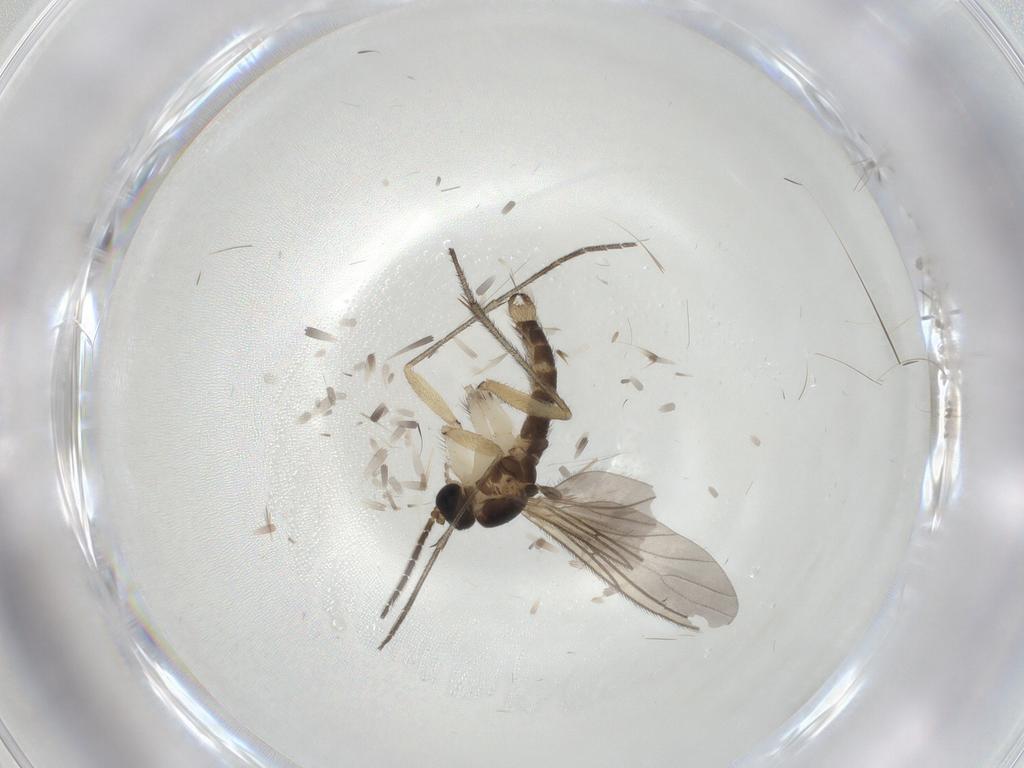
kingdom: Animalia
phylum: Arthropoda
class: Insecta
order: Diptera
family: Sciaridae
